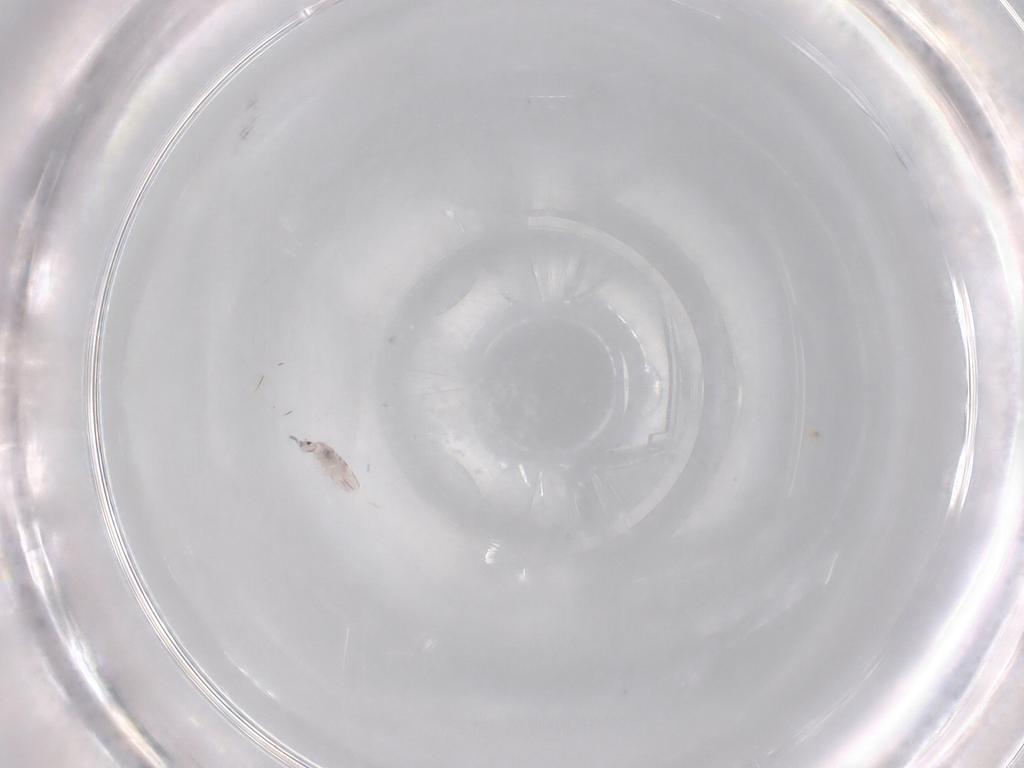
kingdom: Animalia
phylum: Arthropoda
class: Collembola
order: Entomobryomorpha
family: Entomobryidae
